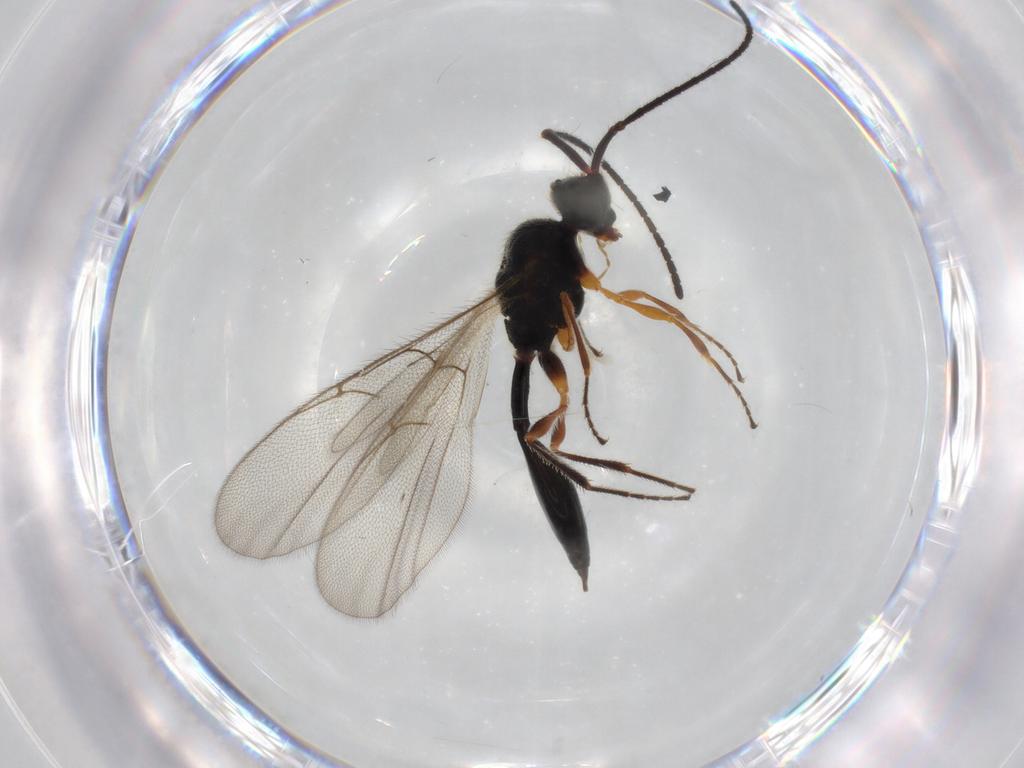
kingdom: Animalia
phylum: Arthropoda
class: Insecta
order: Hymenoptera
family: Diapriidae
